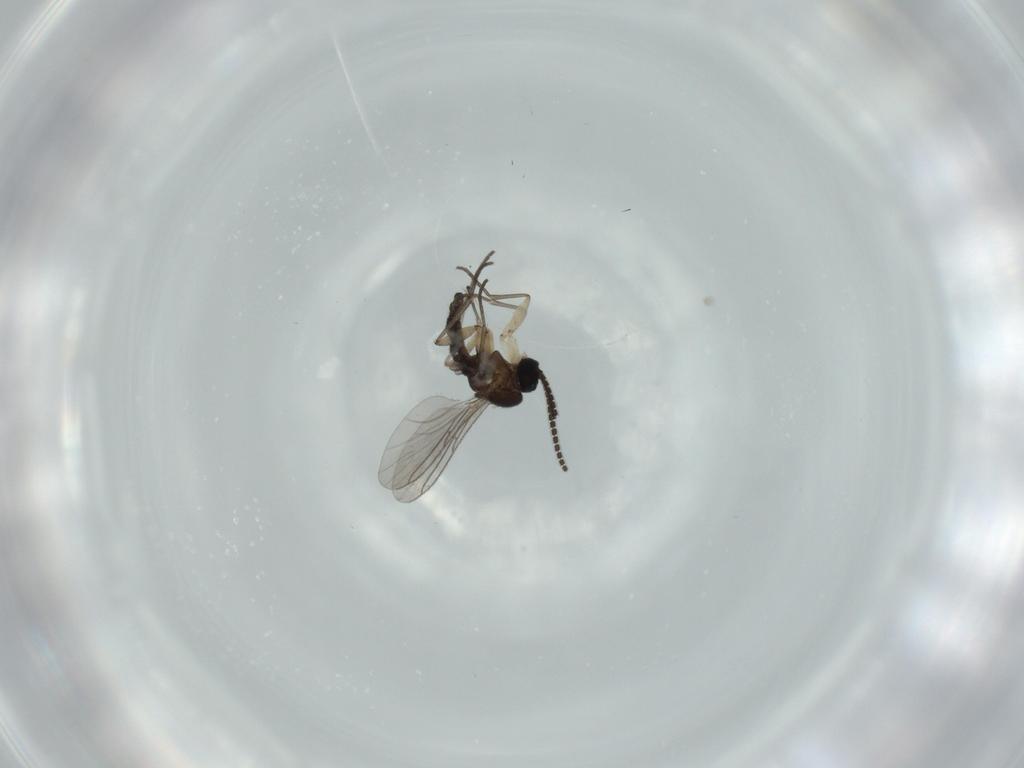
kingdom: Animalia
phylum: Arthropoda
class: Insecta
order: Diptera
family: Sciaridae
